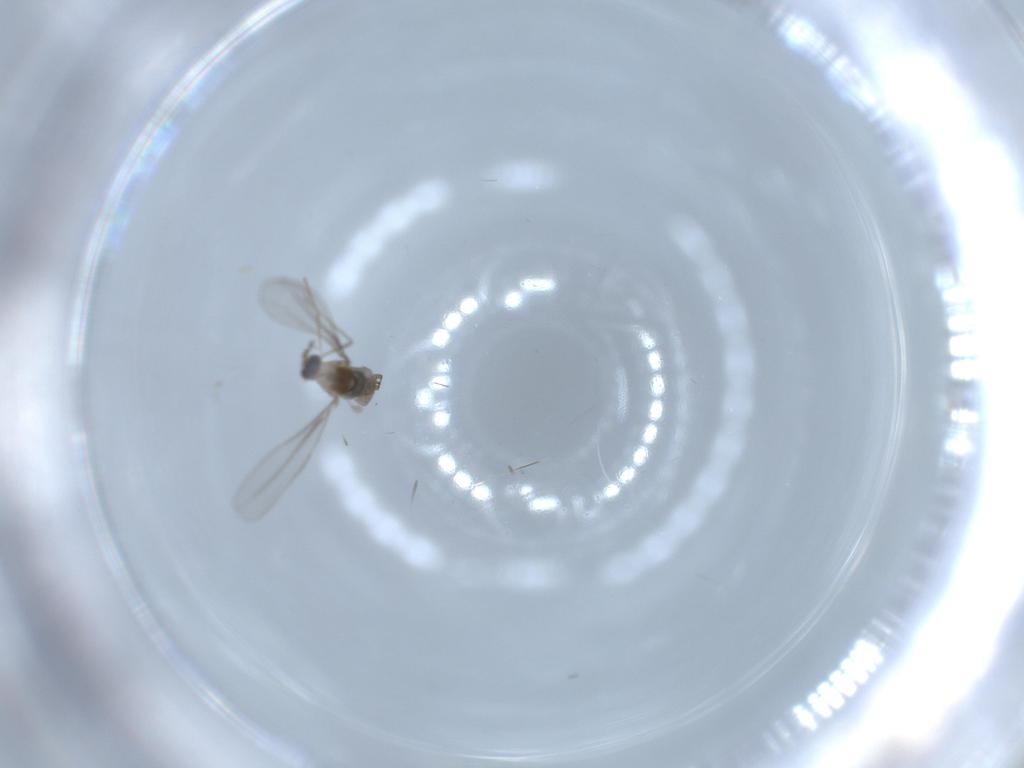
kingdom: Animalia
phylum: Arthropoda
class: Insecta
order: Diptera
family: Cecidomyiidae
